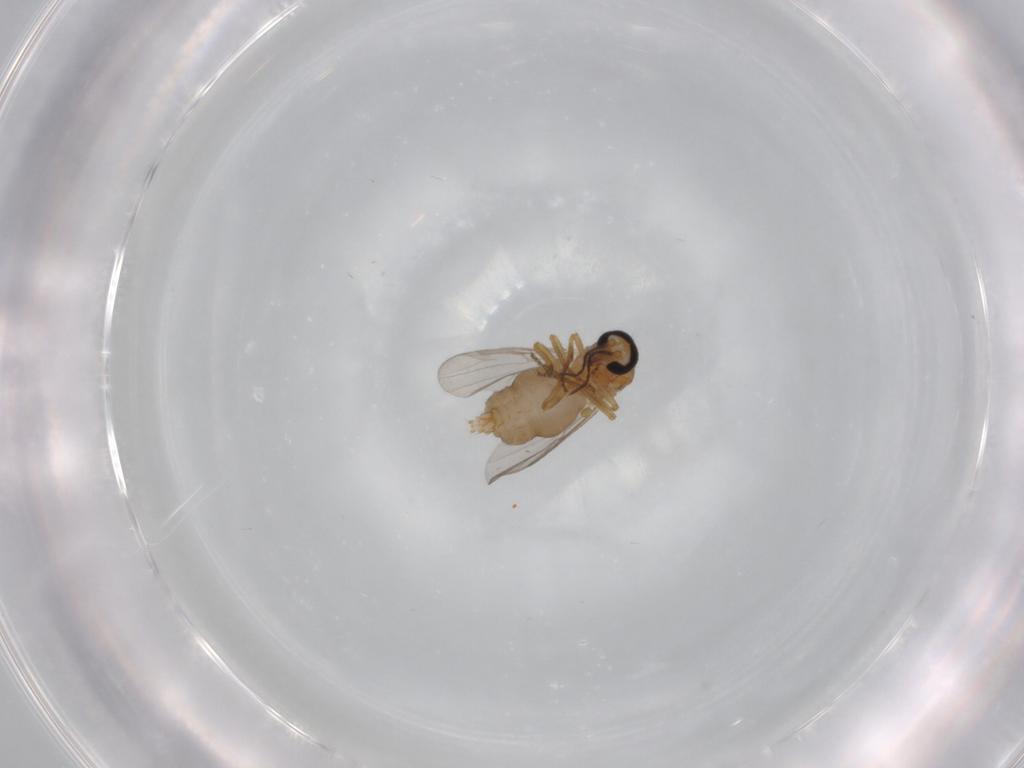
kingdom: Animalia
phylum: Arthropoda
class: Insecta
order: Diptera
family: Ceratopogonidae
